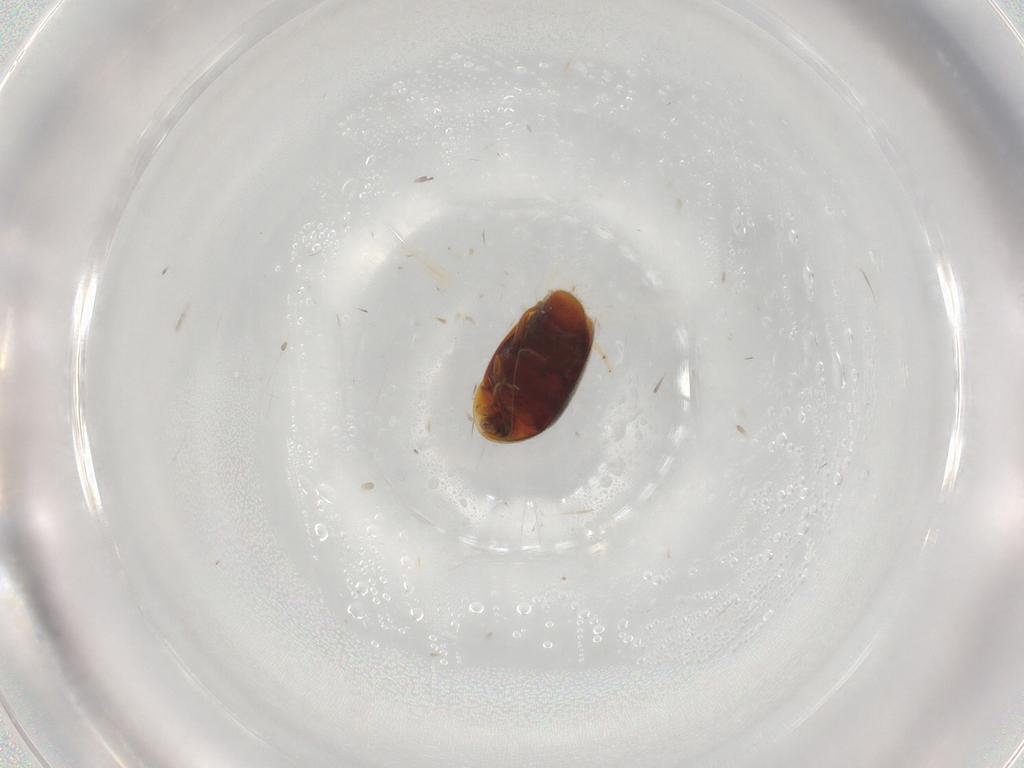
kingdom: Animalia
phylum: Arthropoda
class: Insecta
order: Coleoptera
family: Corylophidae
